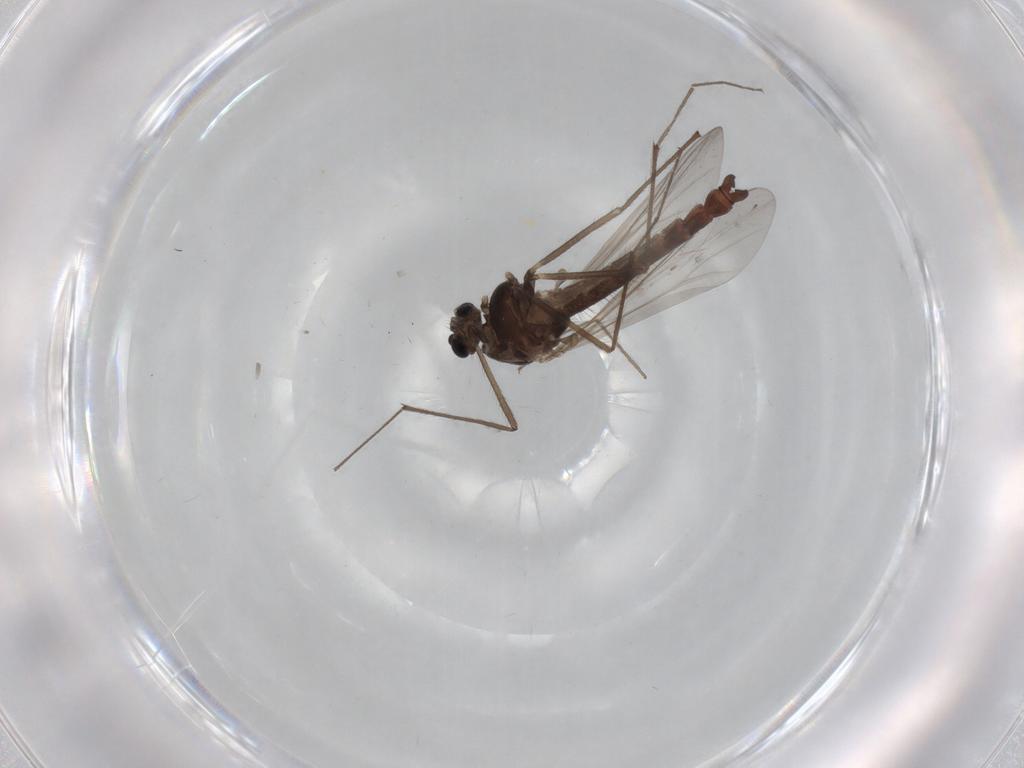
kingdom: Animalia
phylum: Arthropoda
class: Insecta
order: Diptera
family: Chironomidae
